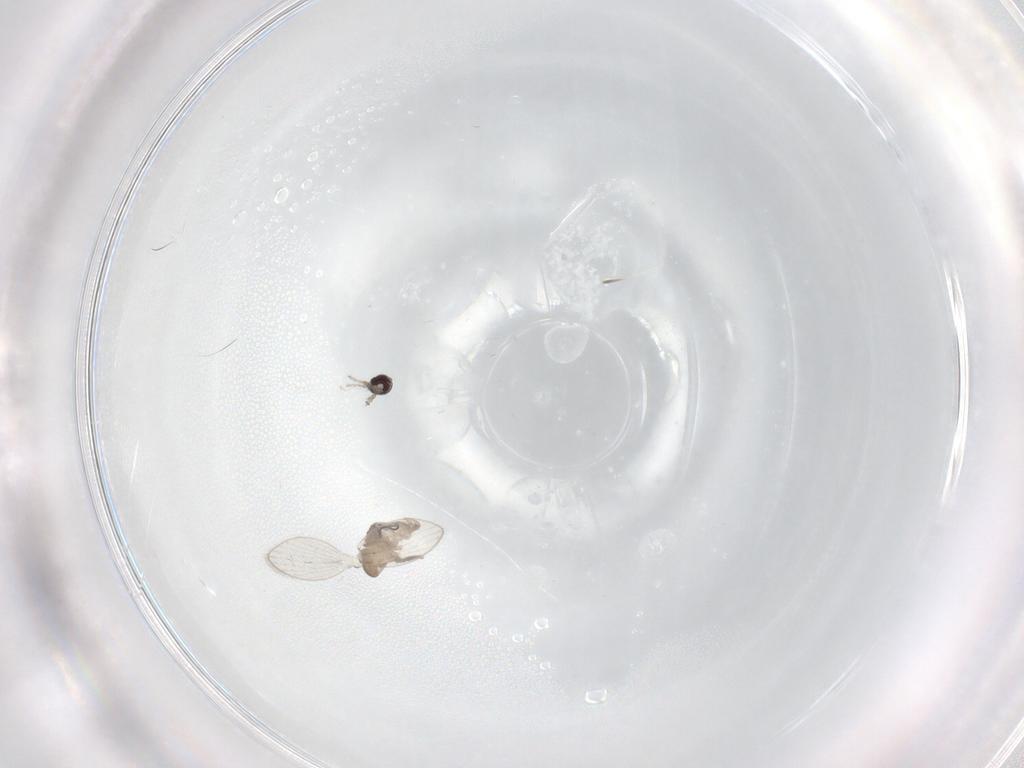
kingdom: Animalia
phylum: Arthropoda
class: Insecta
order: Diptera
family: Psychodidae
